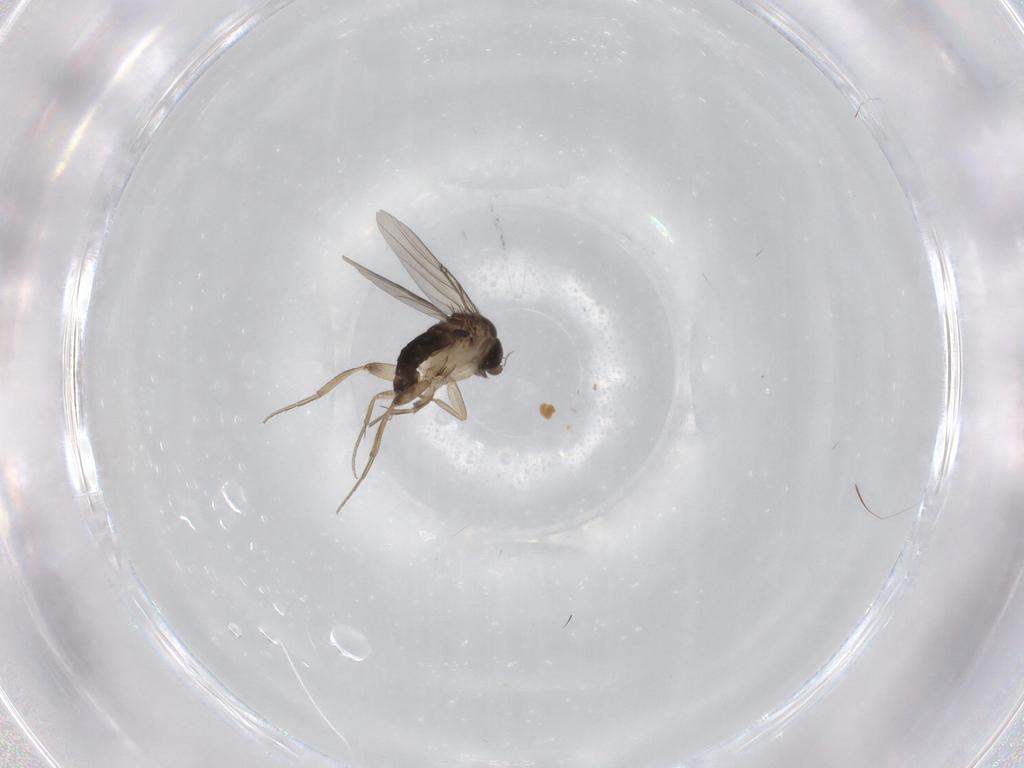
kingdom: Animalia
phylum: Arthropoda
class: Insecta
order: Diptera
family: Phoridae
